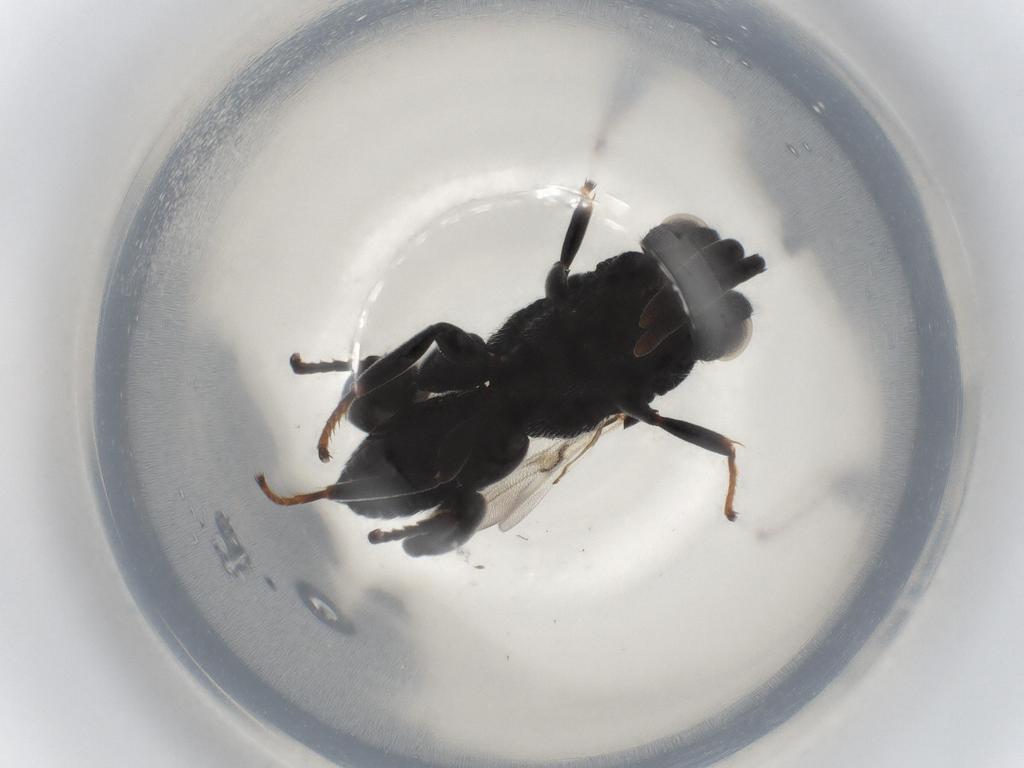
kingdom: Animalia
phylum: Arthropoda
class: Insecta
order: Hymenoptera
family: Chalcididae
